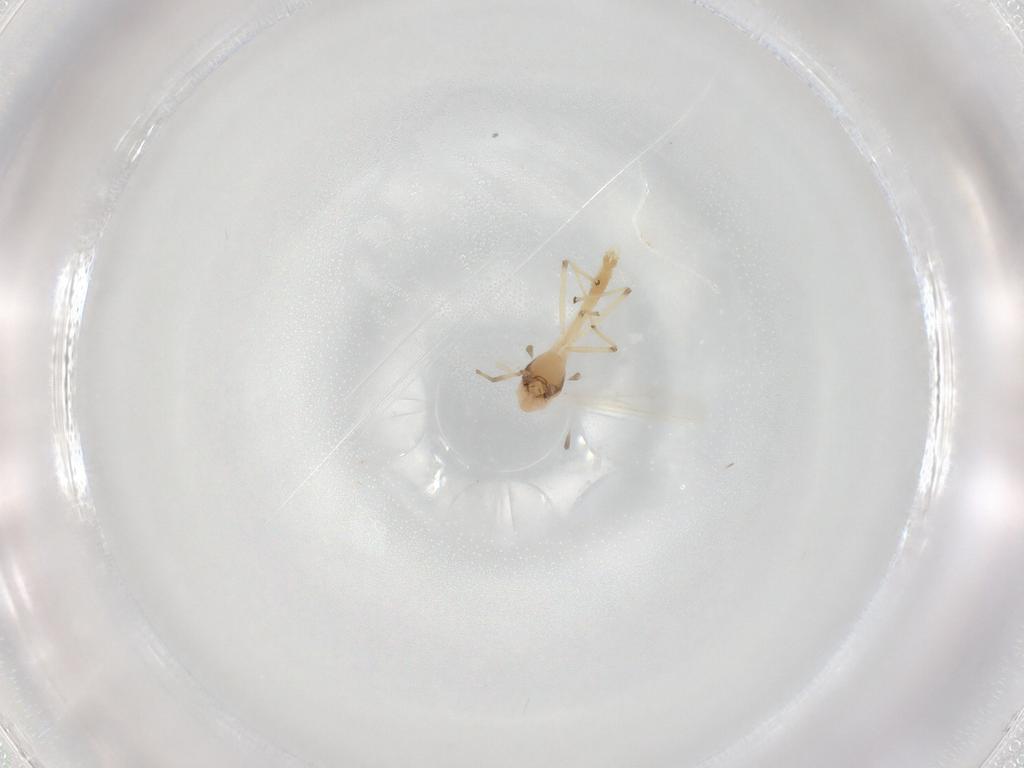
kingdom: Animalia
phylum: Arthropoda
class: Insecta
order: Diptera
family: Chironomidae
